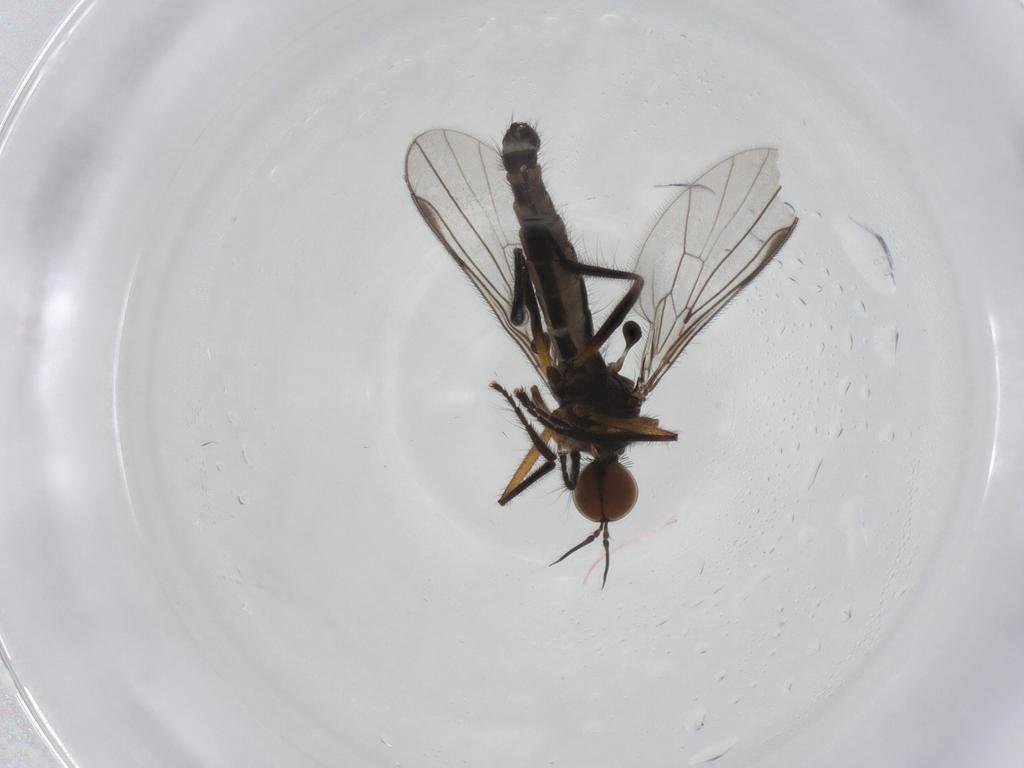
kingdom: Animalia
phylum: Arthropoda
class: Insecta
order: Diptera
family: Empididae
